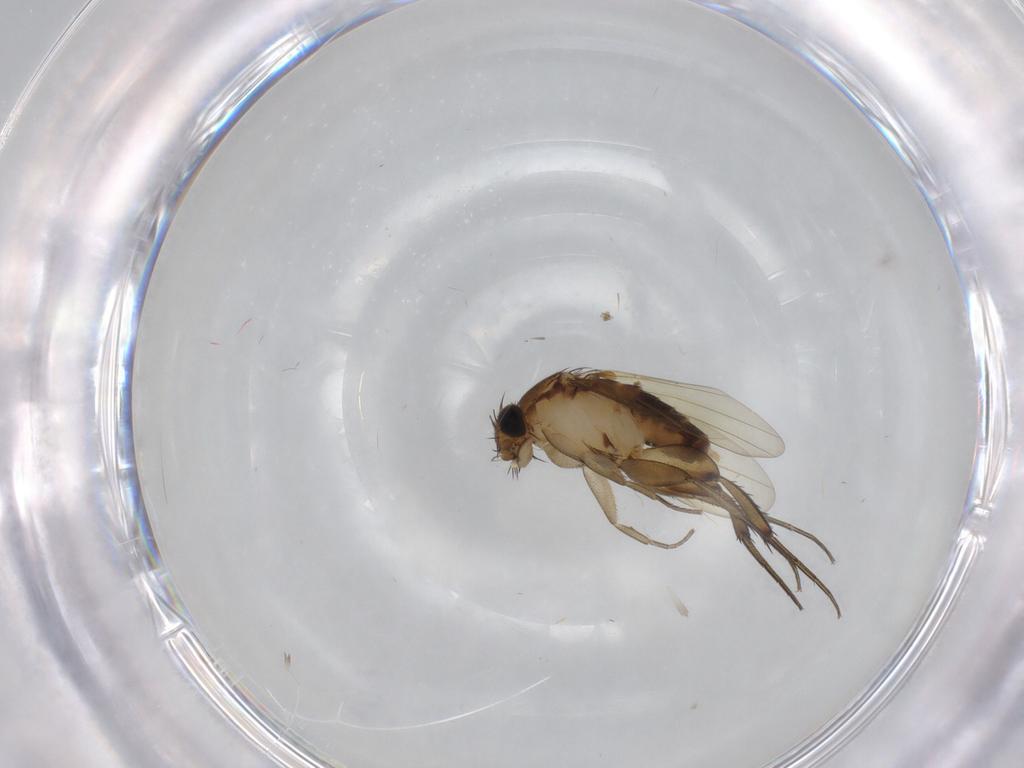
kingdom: Animalia
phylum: Arthropoda
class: Insecta
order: Diptera
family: Phoridae
